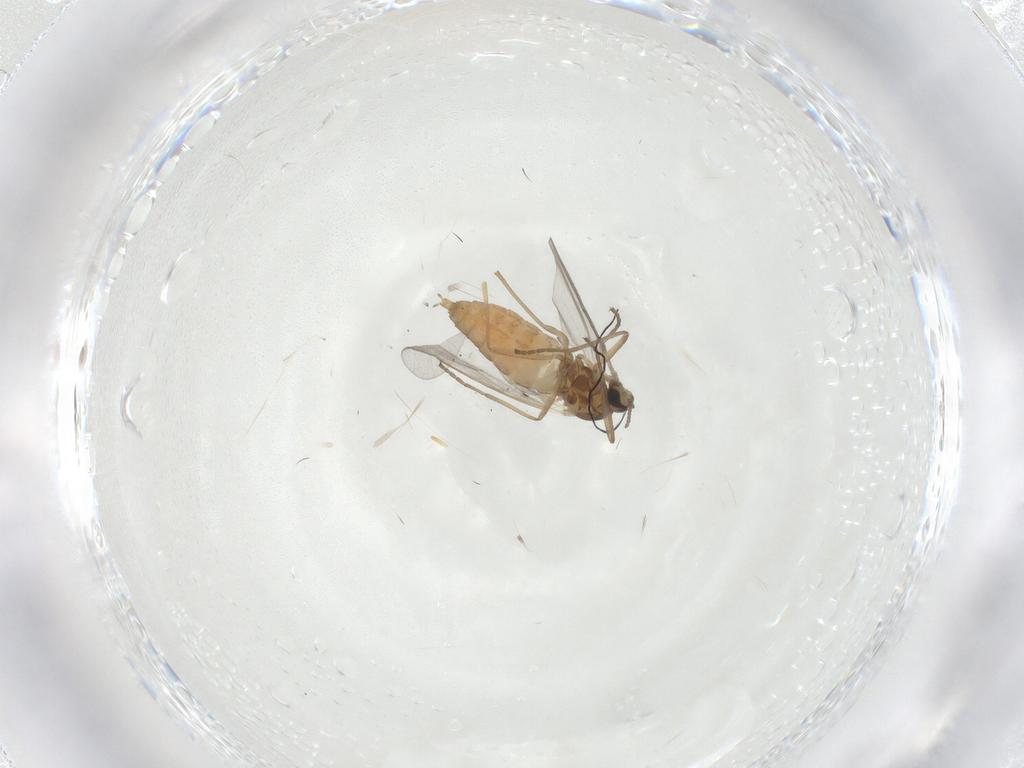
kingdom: Animalia
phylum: Arthropoda
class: Insecta
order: Diptera
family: Cecidomyiidae
